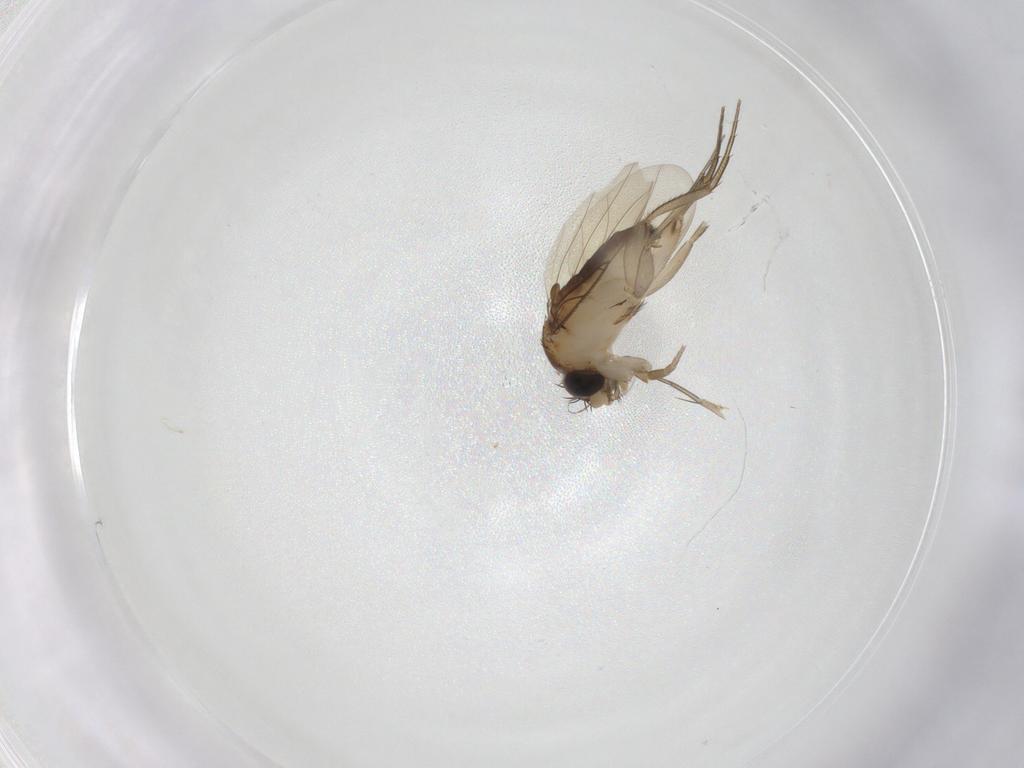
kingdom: Animalia
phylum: Arthropoda
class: Insecta
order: Diptera
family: Phoridae
